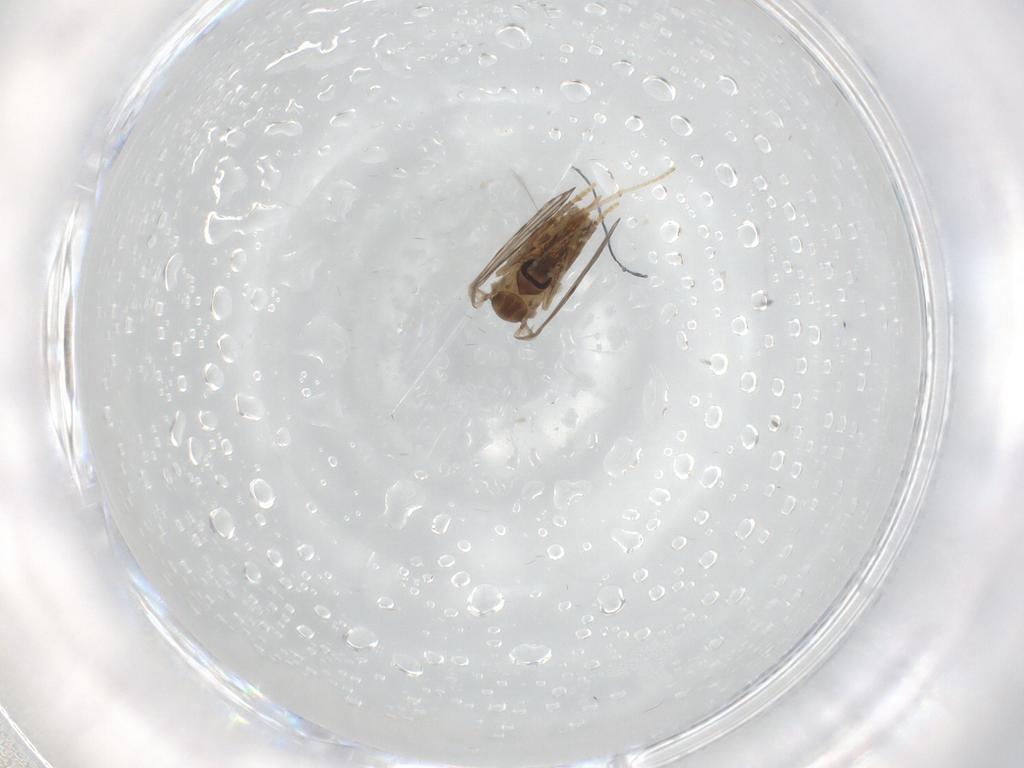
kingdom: Animalia
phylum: Arthropoda
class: Insecta
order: Diptera
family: Psychodidae
